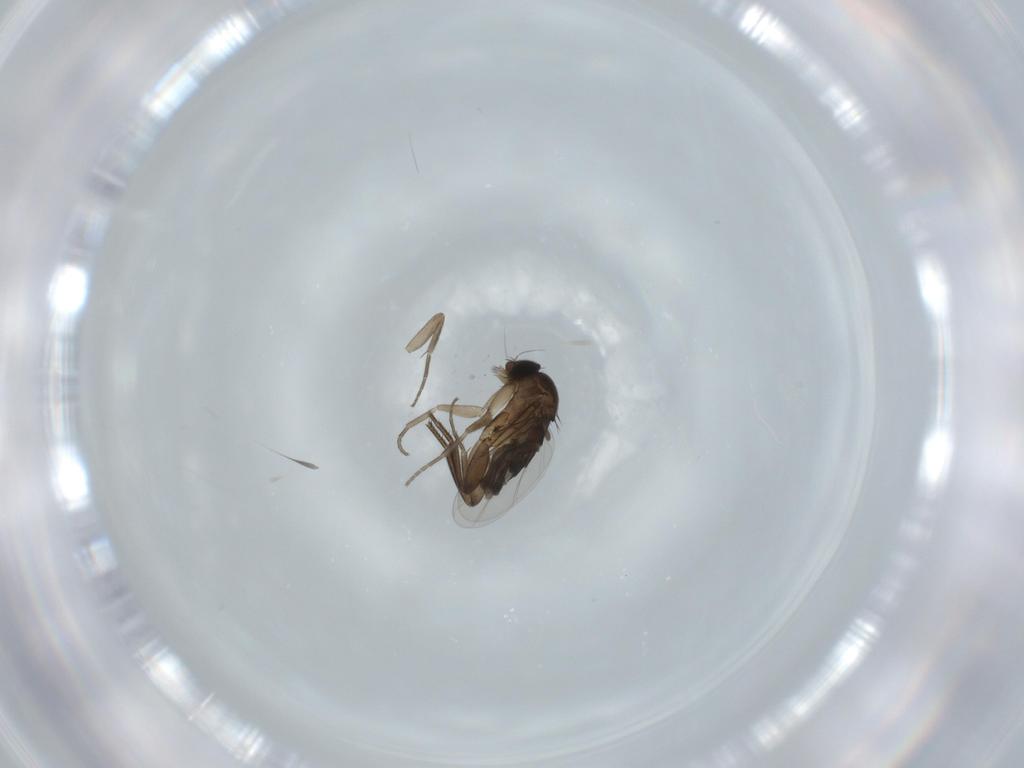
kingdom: Animalia
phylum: Arthropoda
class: Insecta
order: Diptera
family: Phoridae
